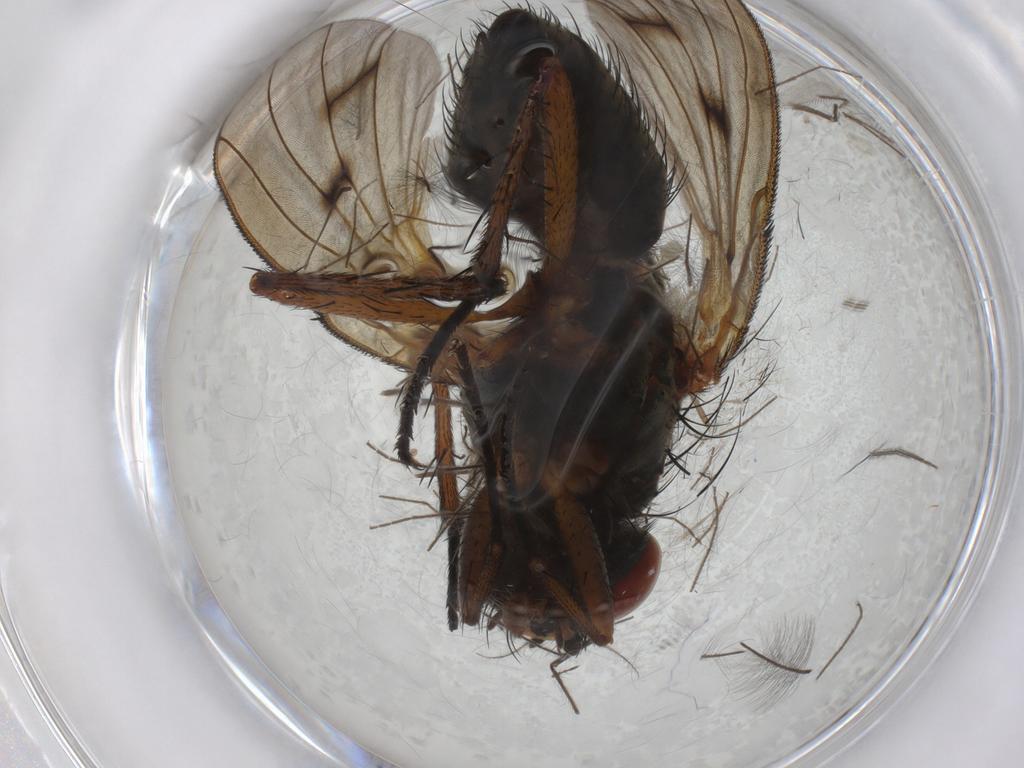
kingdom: Animalia
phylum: Arthropoda
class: Insecta
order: Diptera
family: Anthomyiidae
